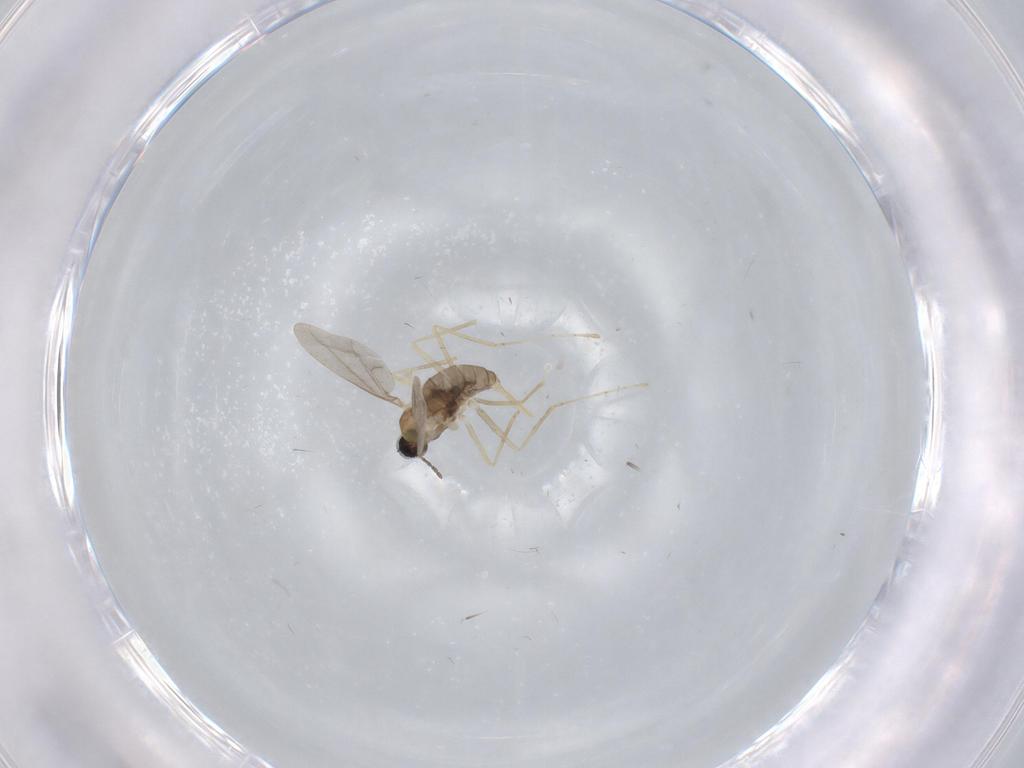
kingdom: Animalia
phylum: Arthropoda
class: Insecta
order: Diptera
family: Cecidomyiidae
